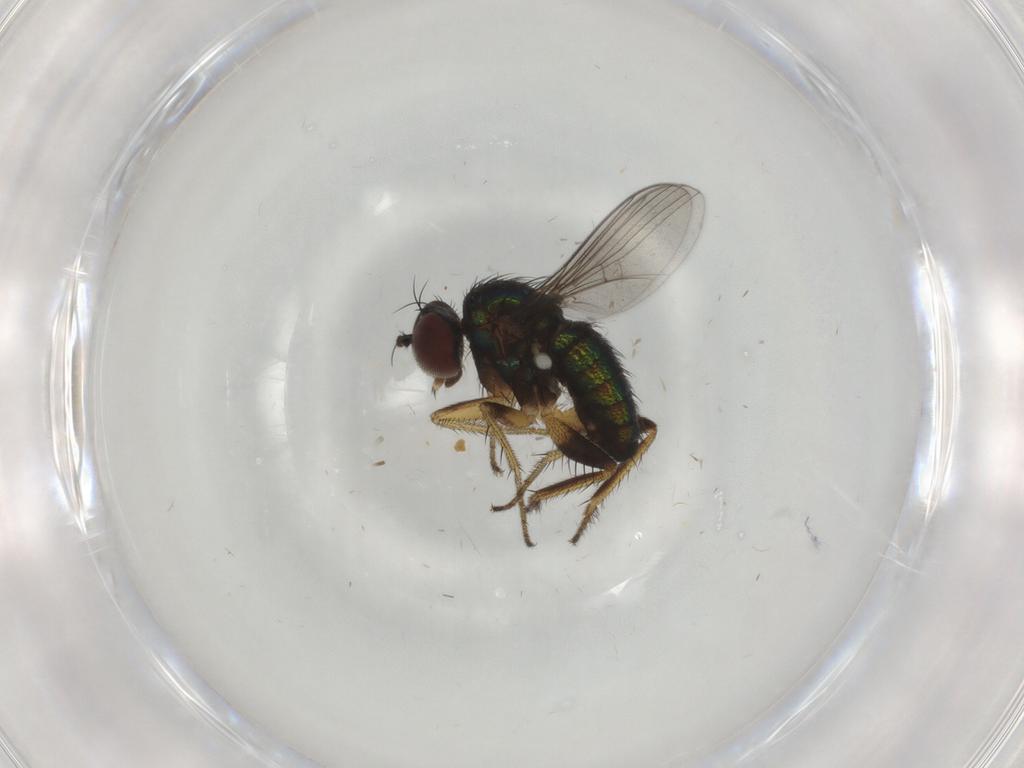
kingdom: Animalia
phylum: Arthropoda
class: Insecta
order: Diptera
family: Dolichopodidae
